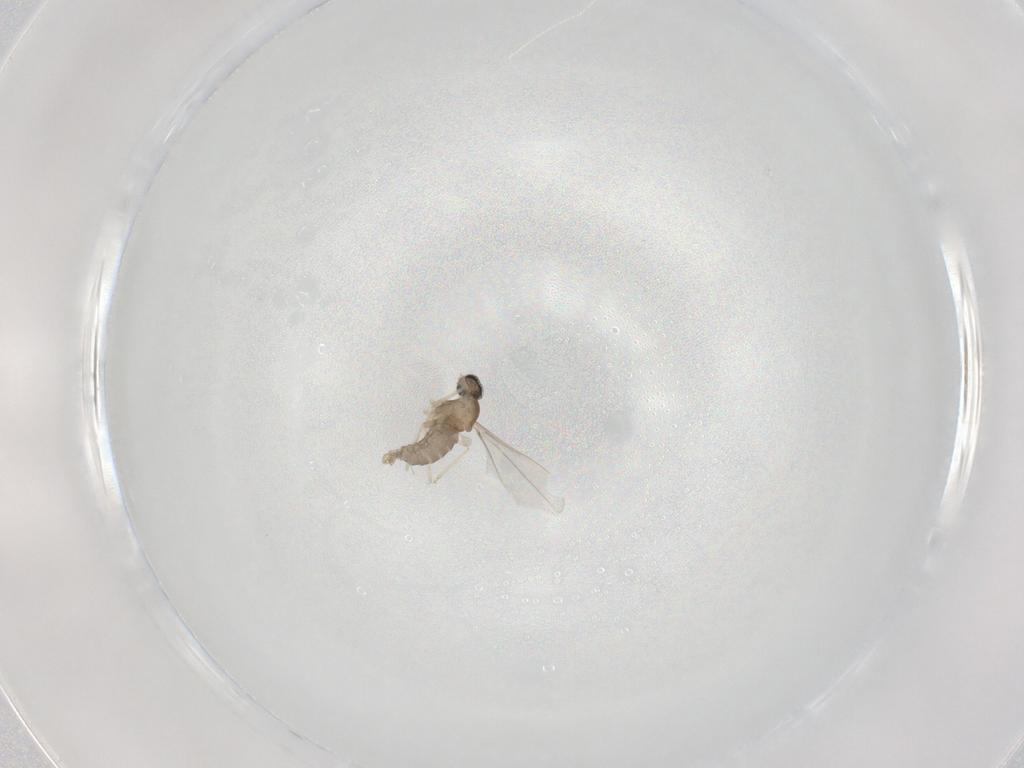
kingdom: Animalia
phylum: Arthropoda
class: Insecta
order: Diptera
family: Cecidomyiidae
